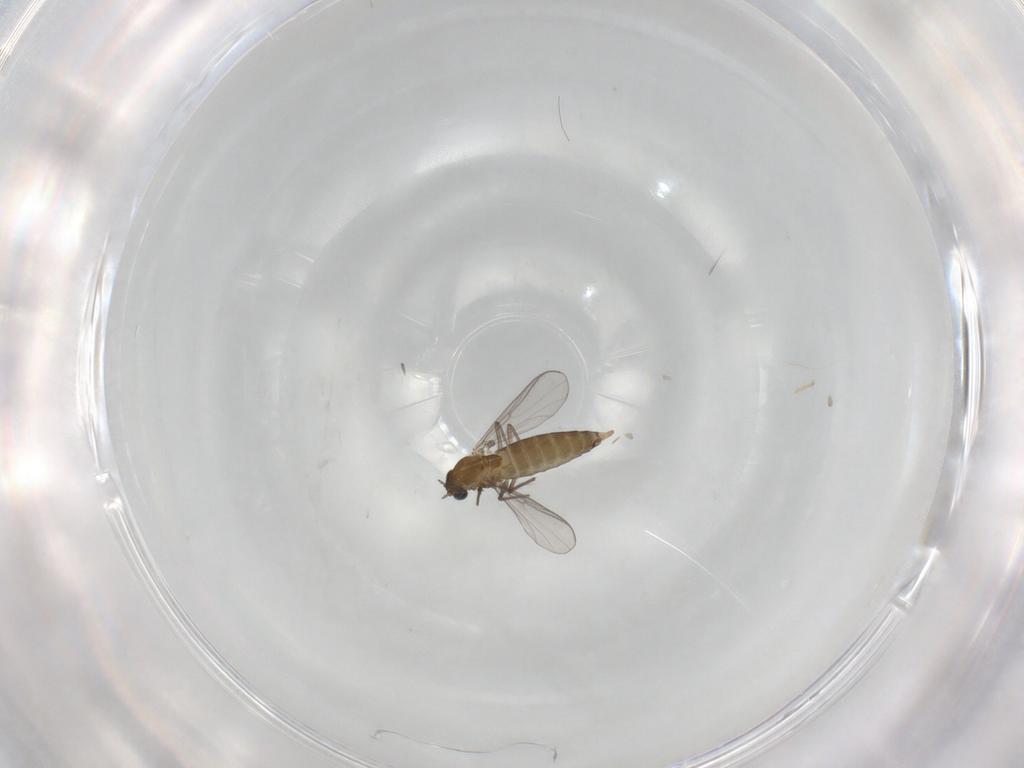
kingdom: Animalia
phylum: Arthropoda
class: Insecta
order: Diptera
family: Chironomidae
